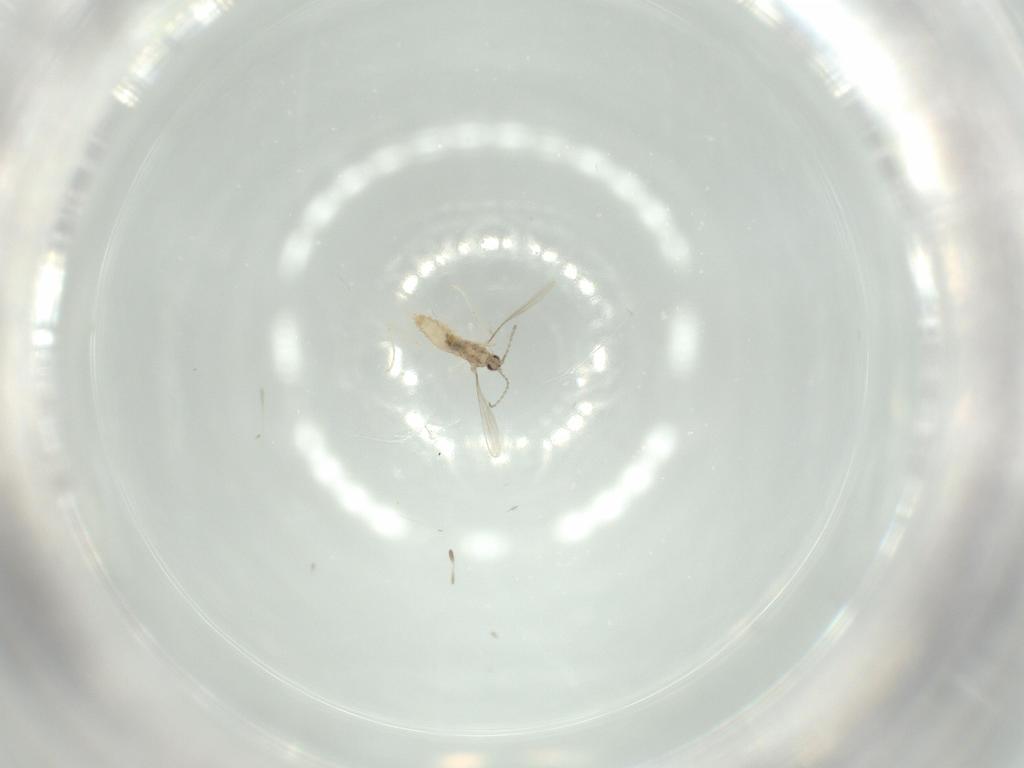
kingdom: Animalia
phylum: Arthropoda
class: Insecta
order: Diptera
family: Cecidomyiidae
